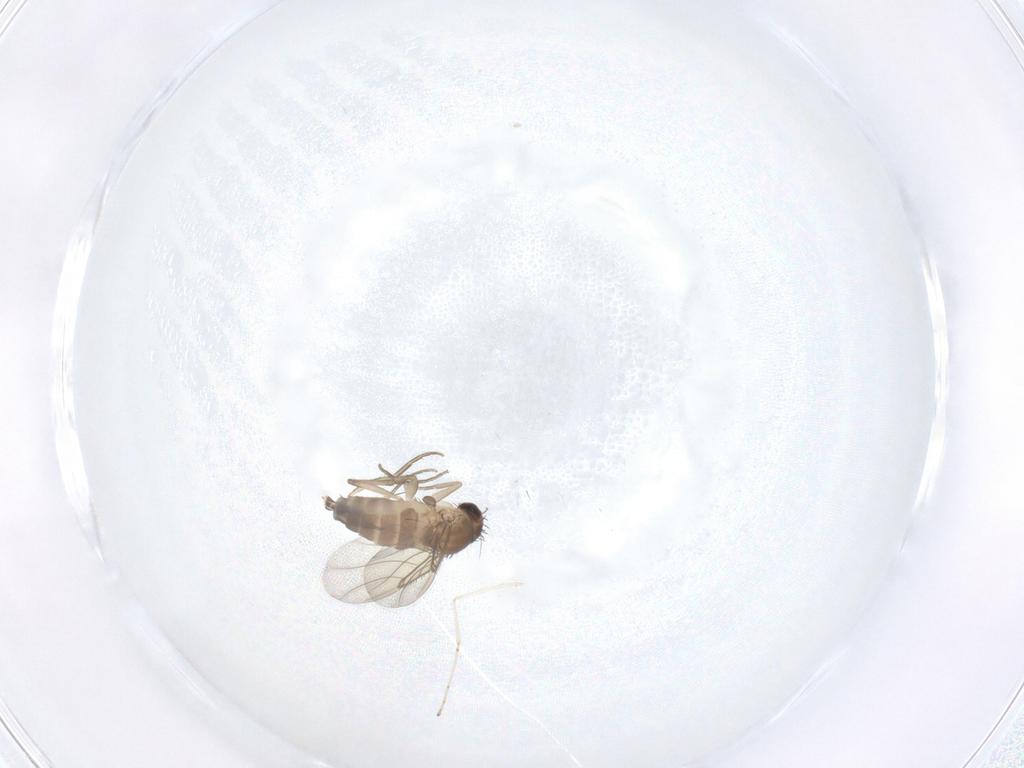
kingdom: Animalia
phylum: Arthropoda
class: Insecta
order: Diptera
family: Phoridae
